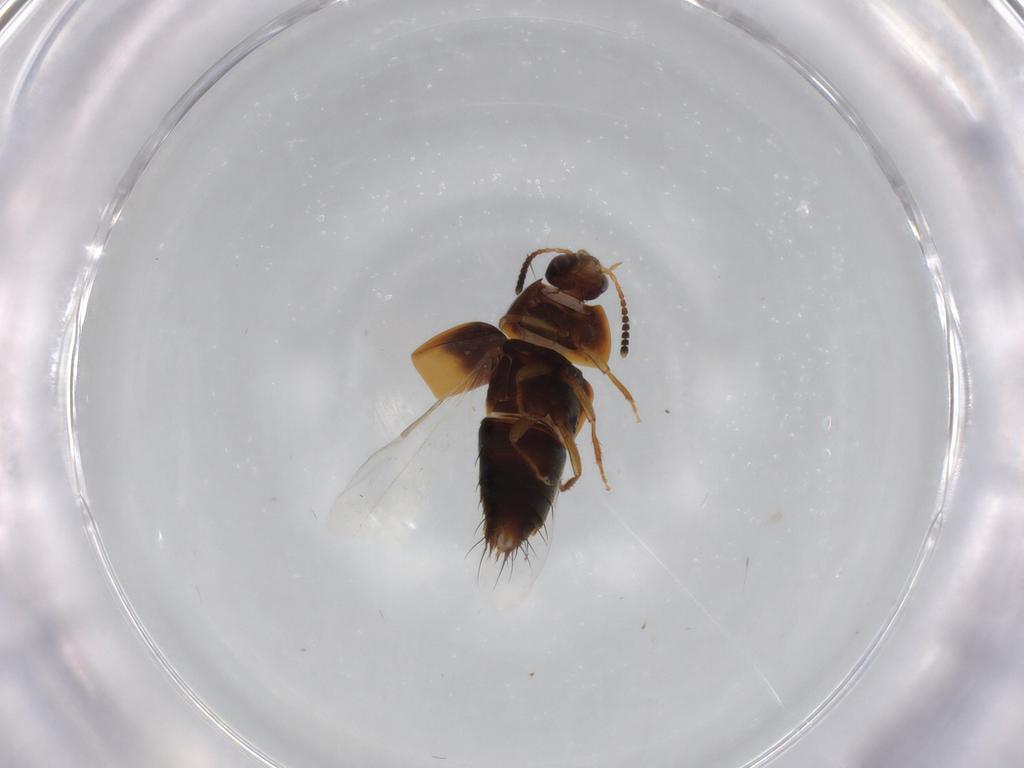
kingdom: Animalia
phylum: Arthropoda
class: Insecta
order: Coleoptera
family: Staphylinidae
